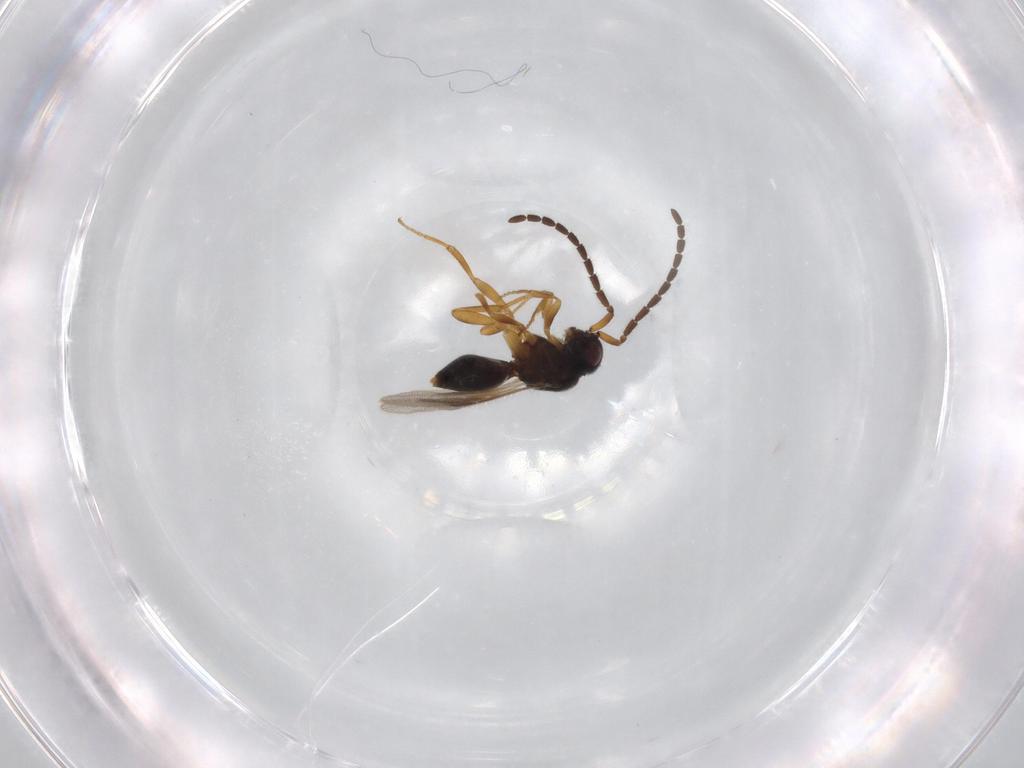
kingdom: Animalia
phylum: Arthropoda
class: Insecta
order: Hymenoptera
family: Megaspilidae
